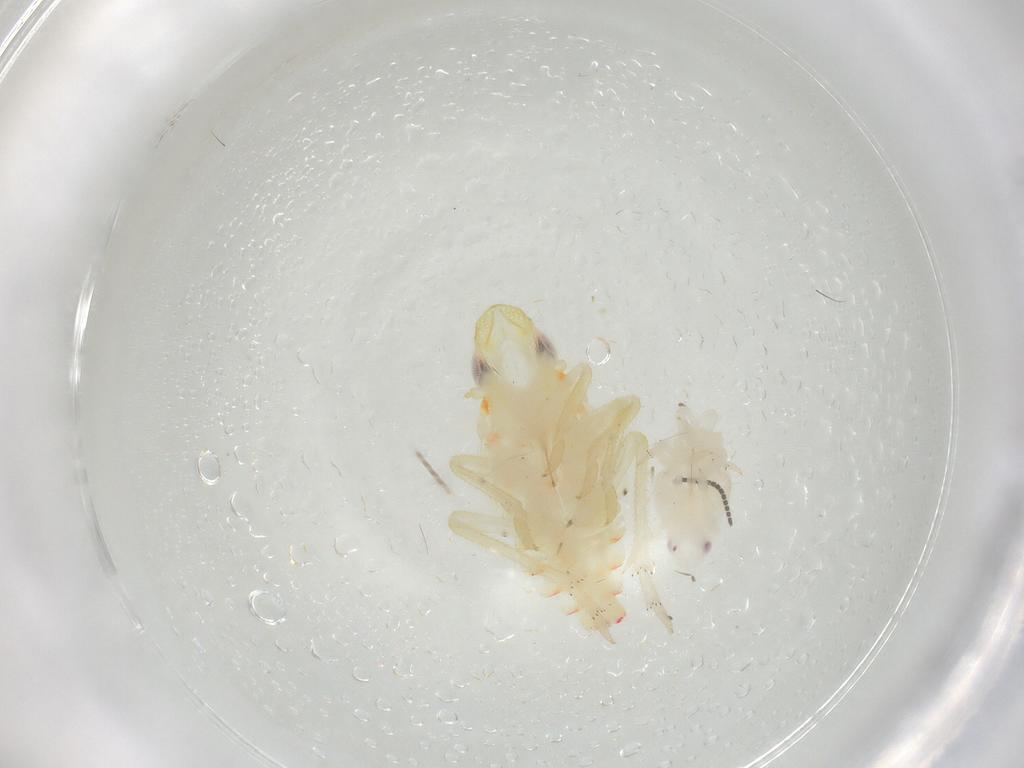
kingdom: Animalia
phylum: Arthropoda
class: Insecta
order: Hemiptera
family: Tropiduchidae
